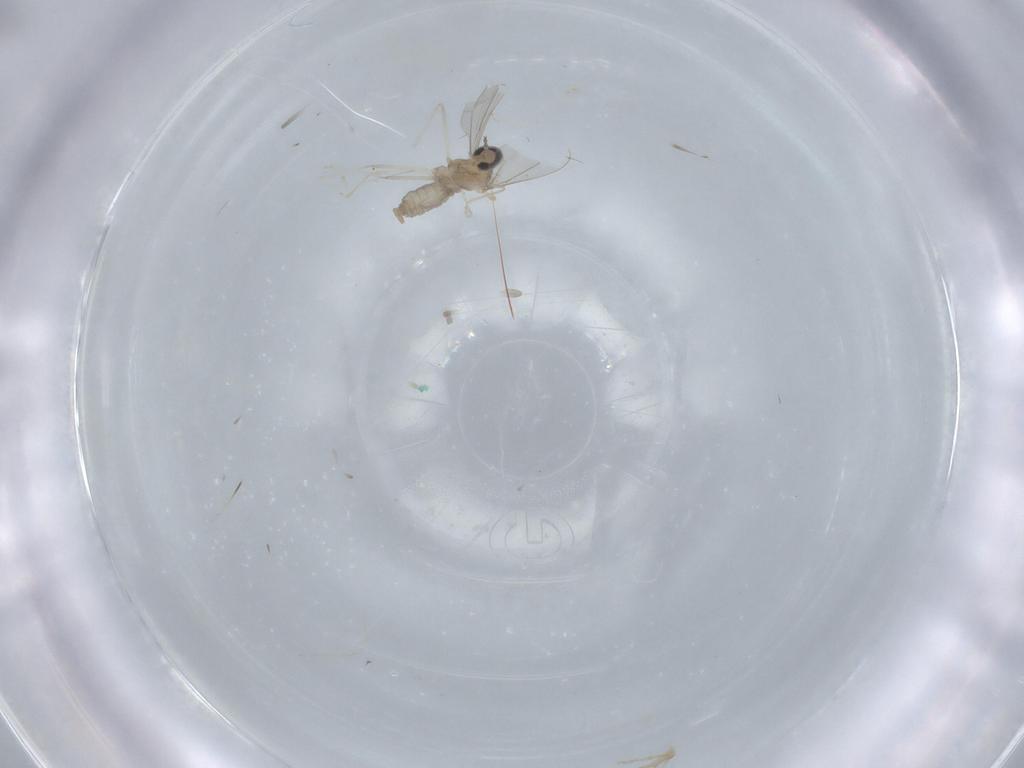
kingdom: Animalia
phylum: Arthropoda
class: Insecta
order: Diptera
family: Cecidomyiidae
